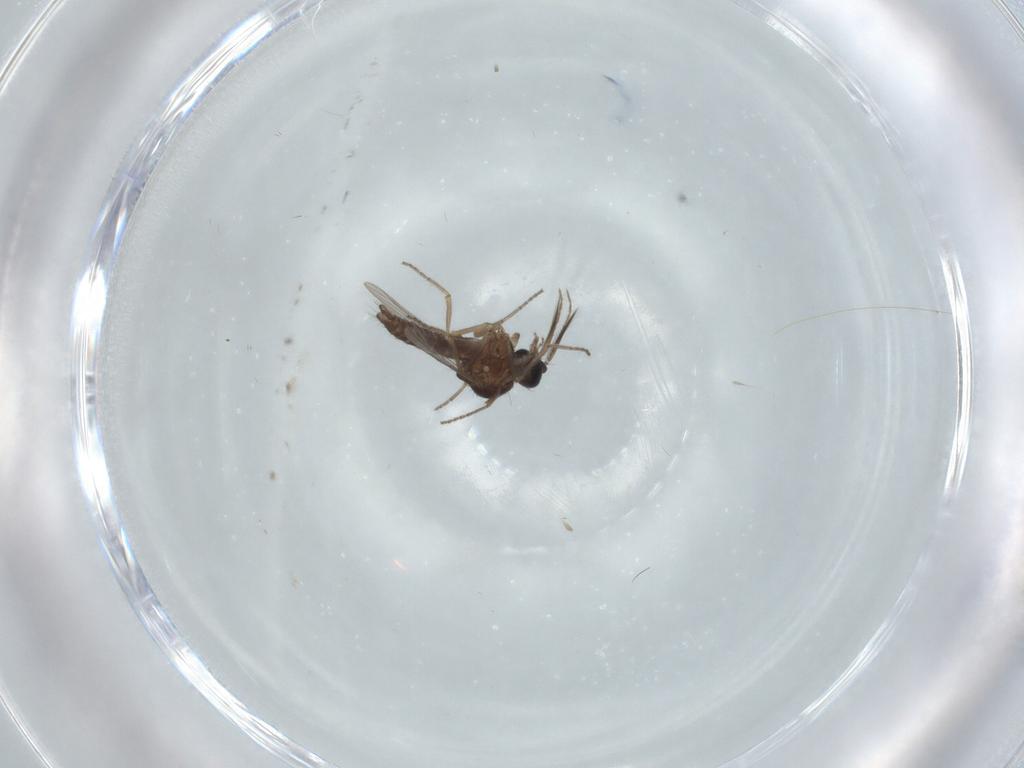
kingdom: Animalia
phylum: Arthropoda
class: Insecta
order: Diptera
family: Ceratopogonidae
